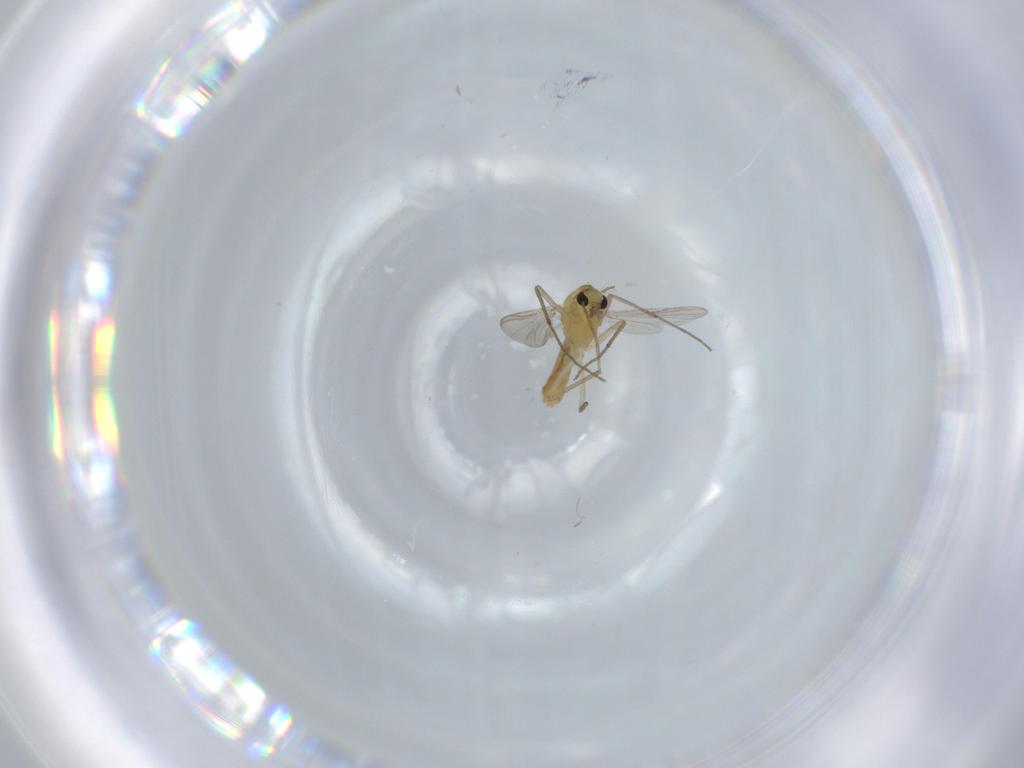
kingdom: Animalia
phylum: Arthropoda
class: Insecta
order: Diptera
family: Chironomidae
